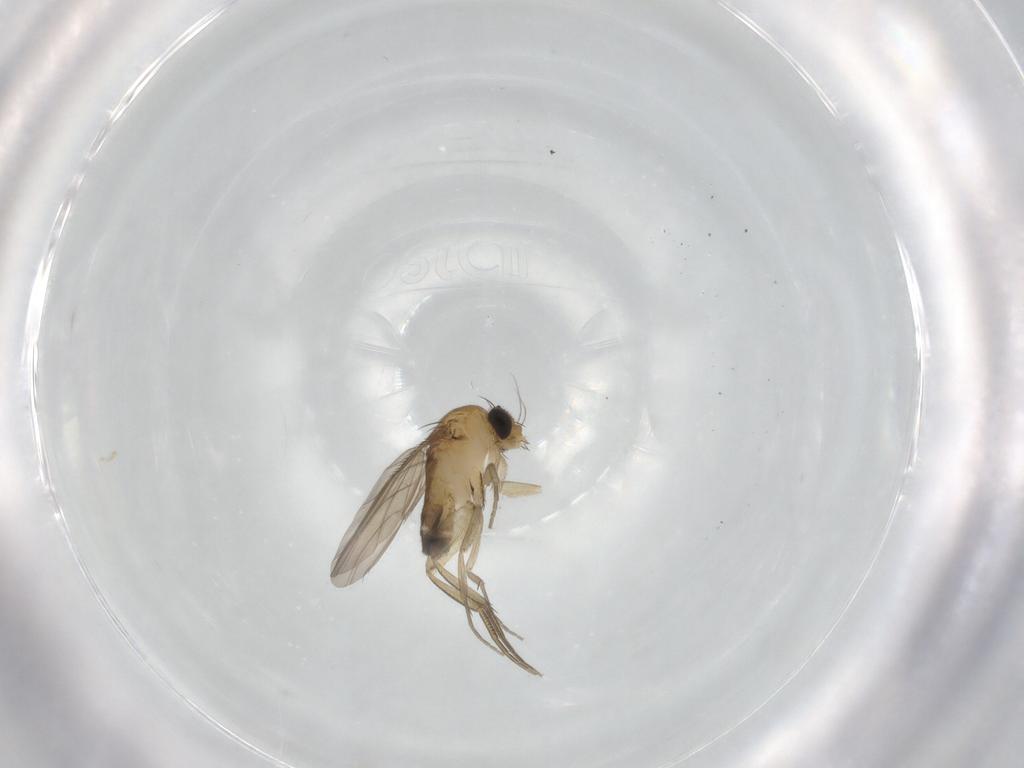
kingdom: Animalia
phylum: Arthropoda
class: Insecta
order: Diptera
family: Phoridae
